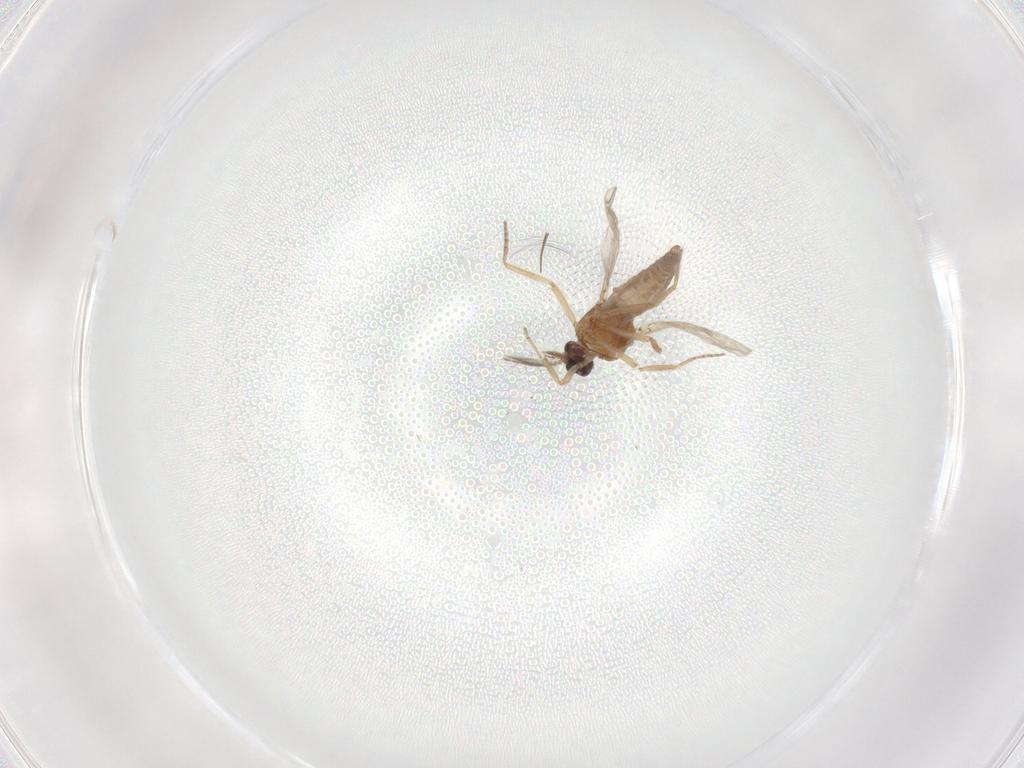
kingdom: Animalia
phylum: Arthropoda
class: Insecta
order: Diptera
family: Ceratopogonidae
